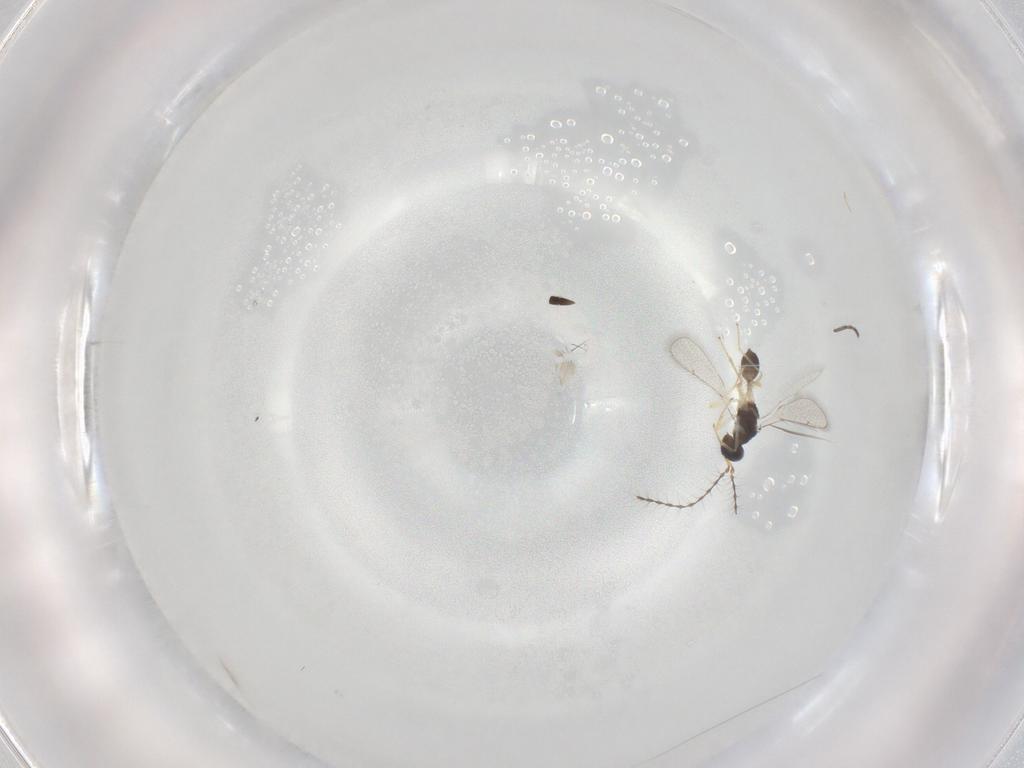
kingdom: Animalia
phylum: Arthropoda
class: Insecta
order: Hymenoptera
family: Diparidae
